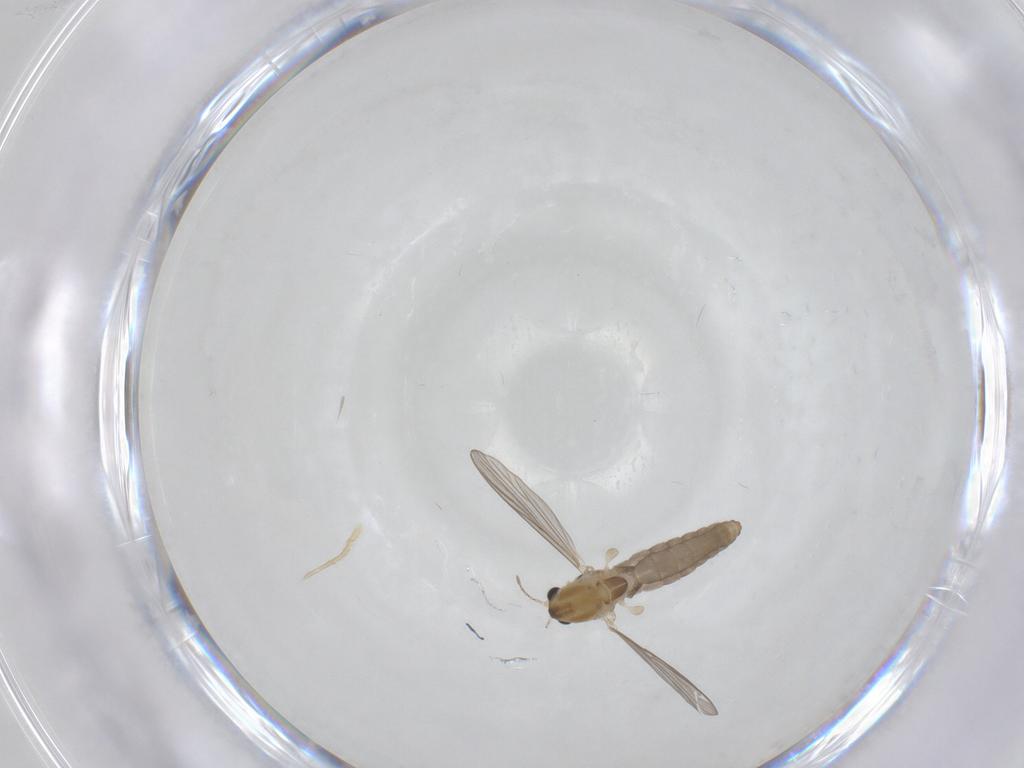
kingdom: Animalia
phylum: Arthropoda
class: Insecta
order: Diptera
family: Chironomidae
